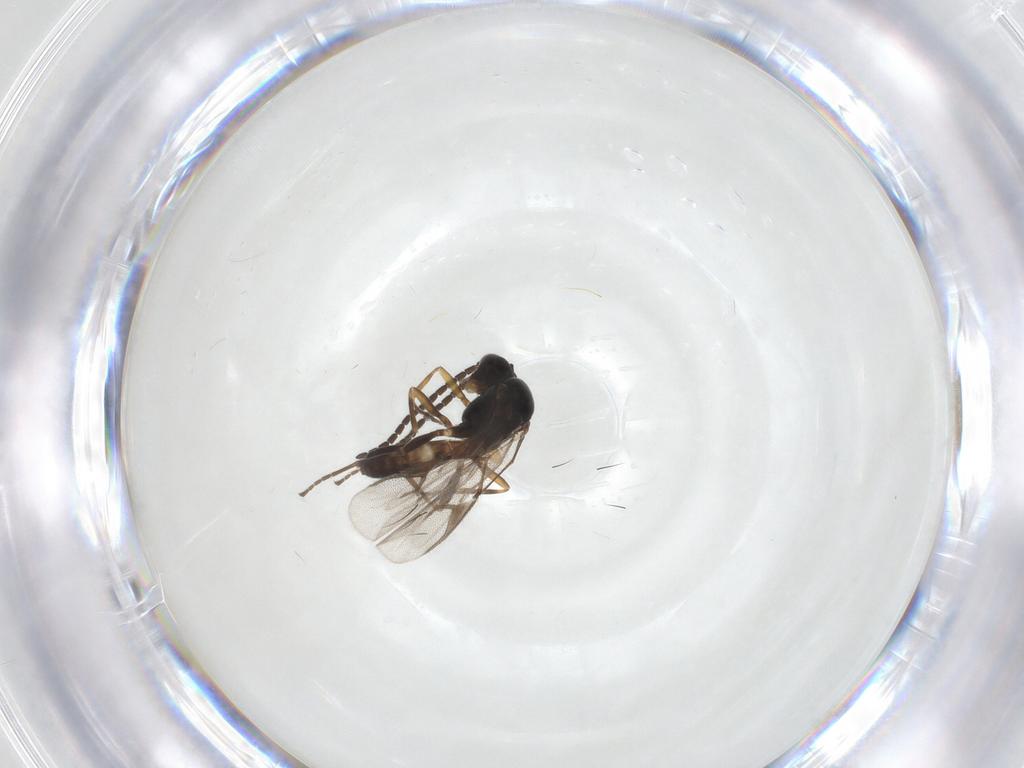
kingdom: Animalia
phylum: Arthropoda
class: Insecta
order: Hymenoptera
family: Braconidae
